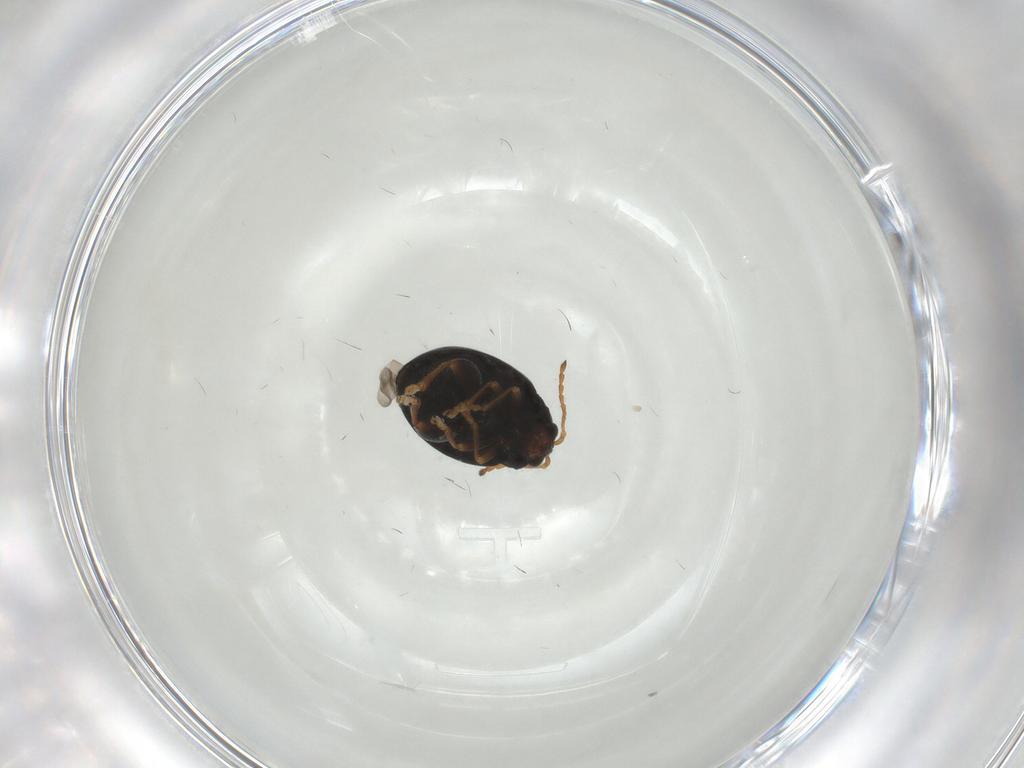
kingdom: Animalia
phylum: Arthropoda
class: Insecta
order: Coleoptera
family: Chrysomelidae
